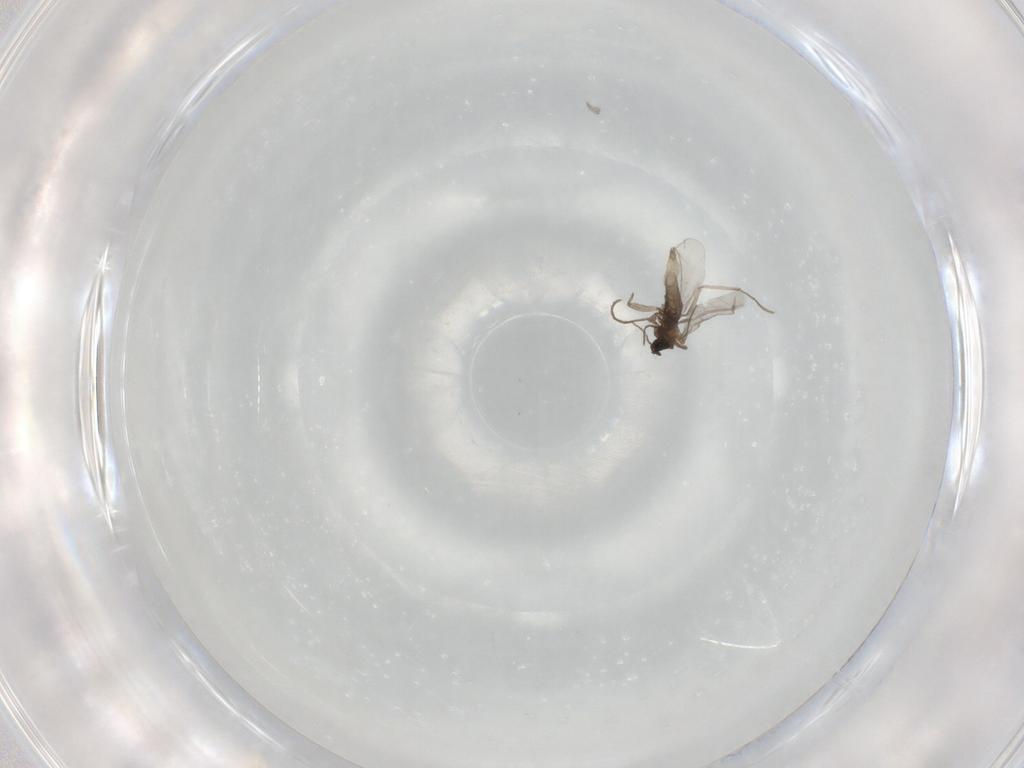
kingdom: Animalia
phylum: Arthropoda
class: Insecta
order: Diptera
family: Sciaridae
